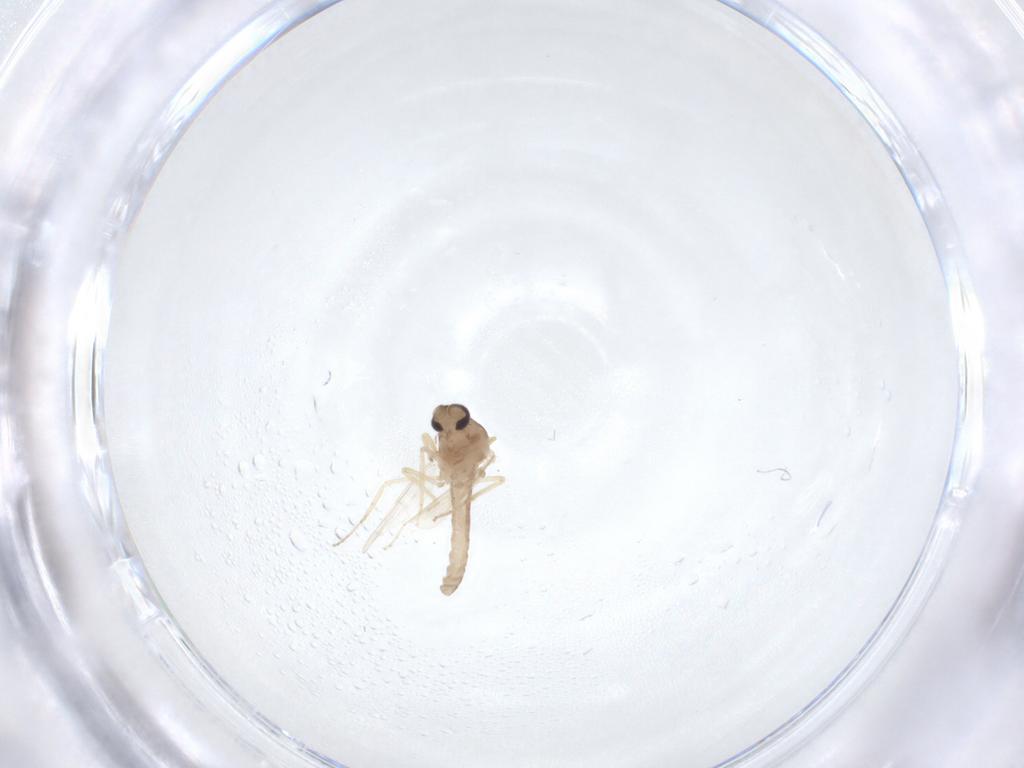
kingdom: Animalia
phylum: Arthropoda
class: Insecta
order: Diptera
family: Ceratopogonidae
